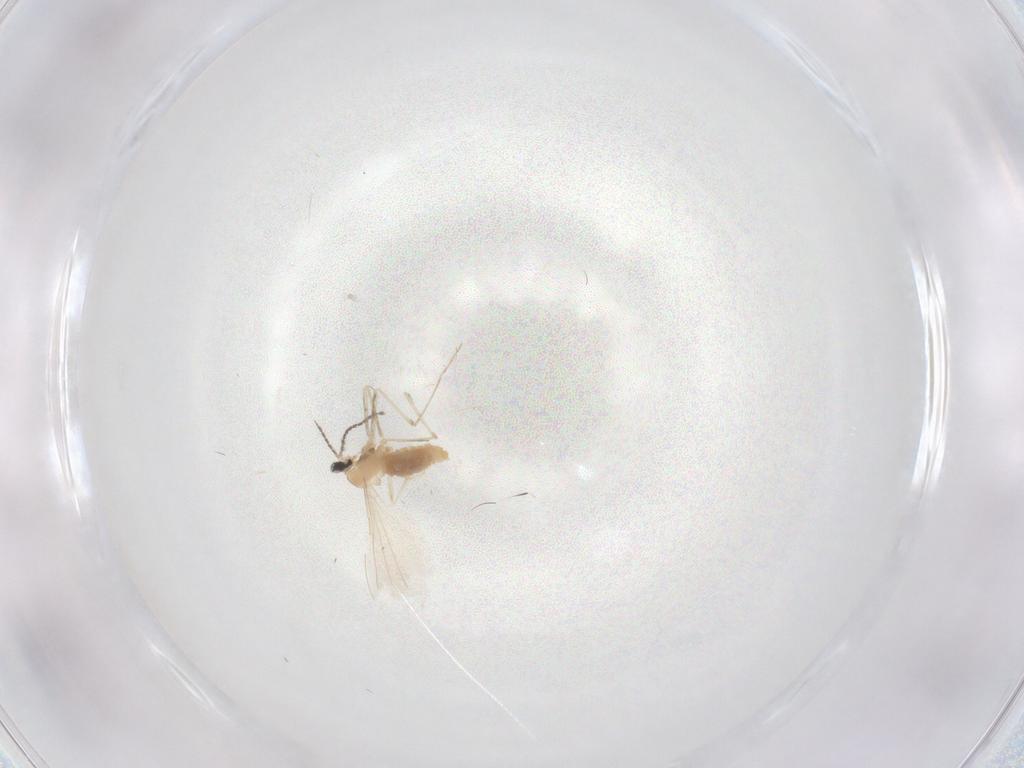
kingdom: Animalia
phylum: Arthropoda
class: Insecta
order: Diptera
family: Cecidomyiidae
